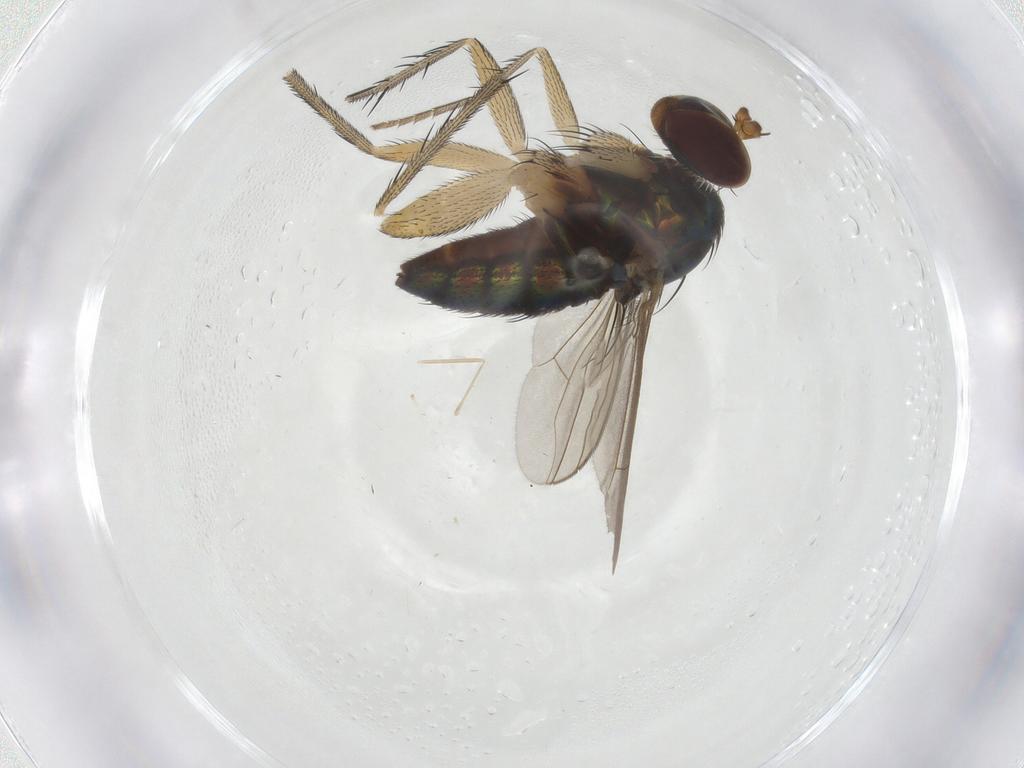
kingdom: Animalia
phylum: Arthropoda
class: Insecta
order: Diptera
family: Dolichopodidae
